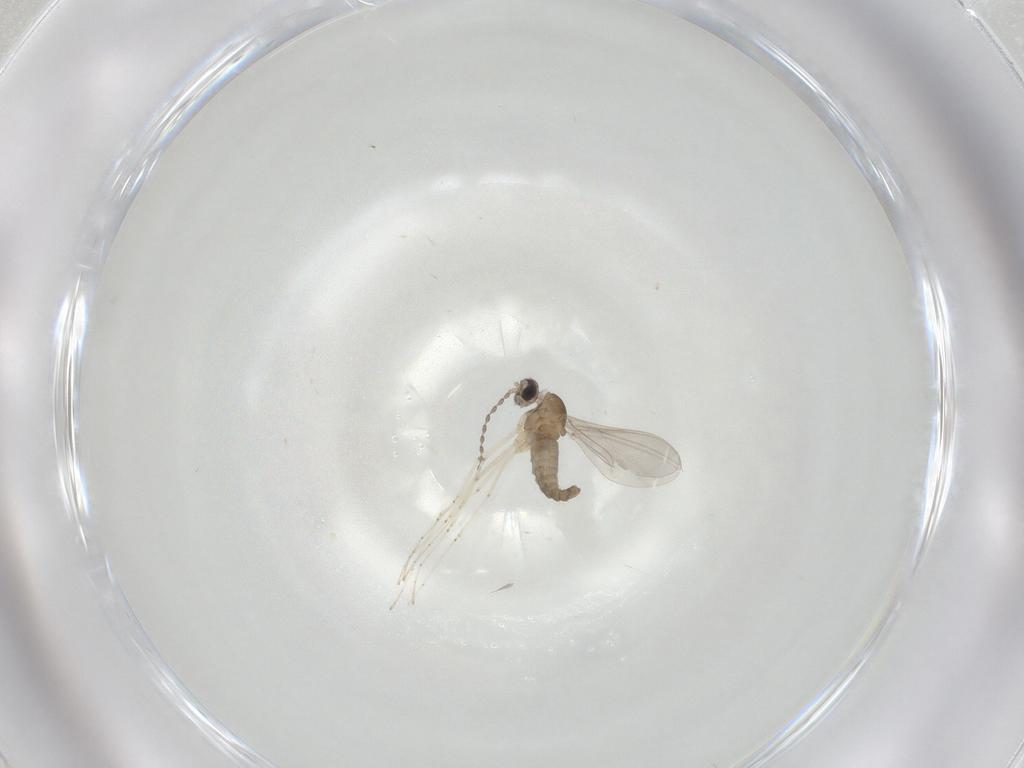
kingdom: Animalia
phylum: Arthropoda
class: Insecta
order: Diptera
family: Cecidomyiidae
